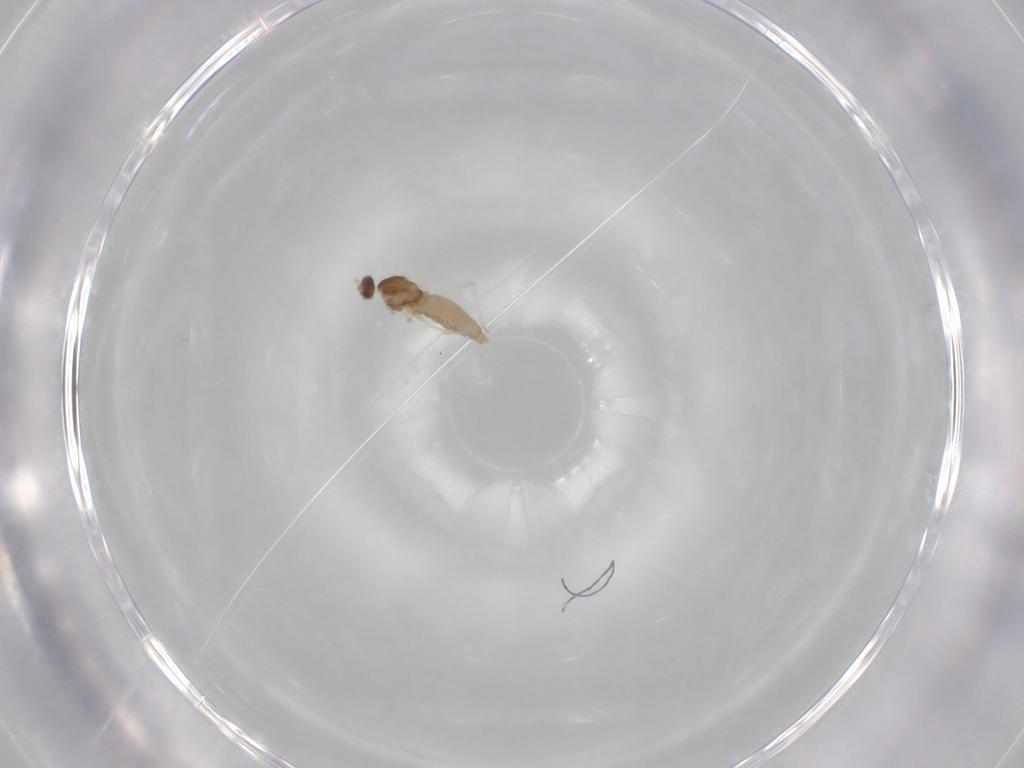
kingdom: Animalia
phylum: Arthropoda
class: Insecta
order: Diptera
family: Cecidomyiidae
